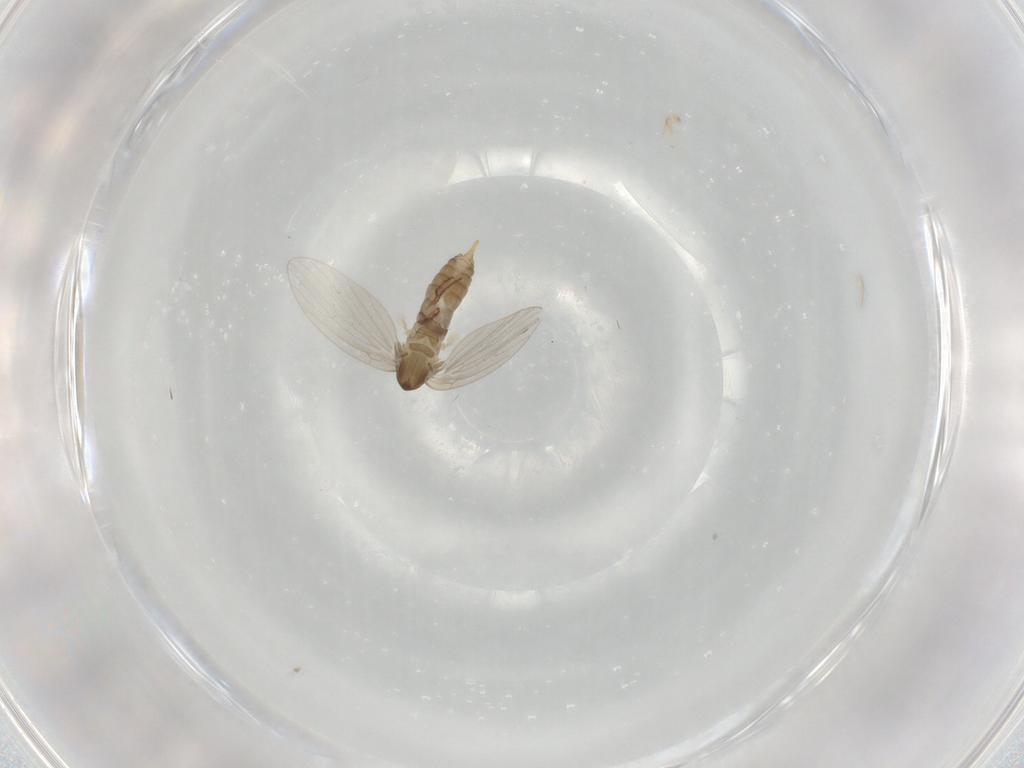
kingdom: Animalia
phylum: Arthropoda
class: Insecta
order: Diptera
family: Psychodidae
